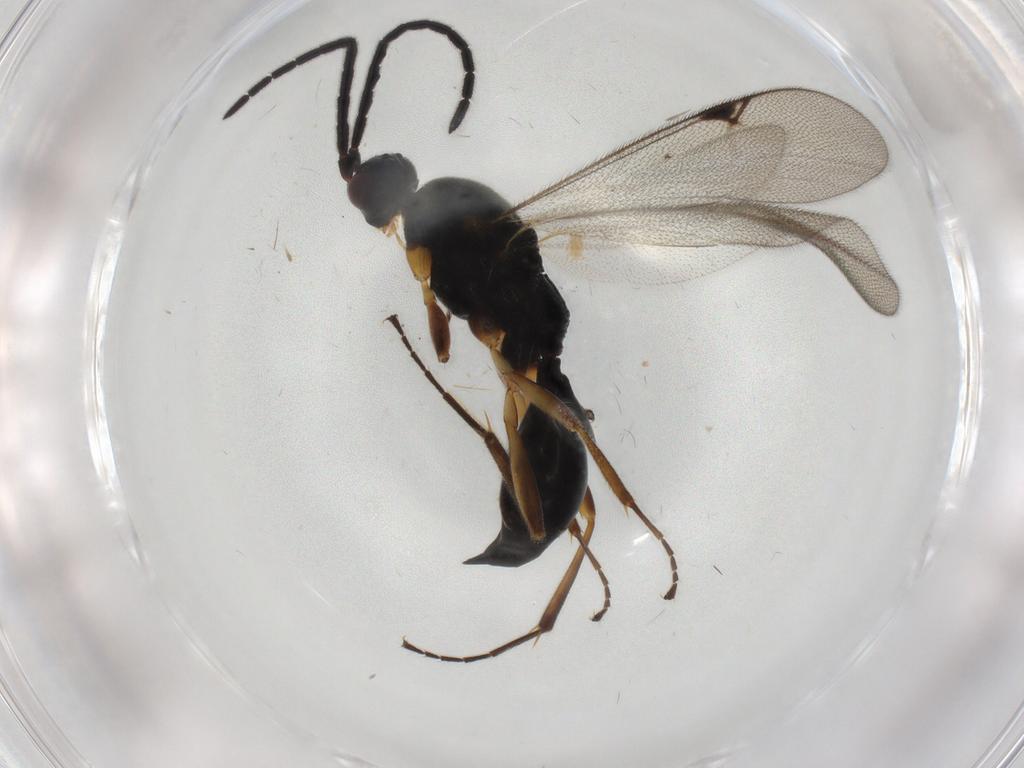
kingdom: Animalia
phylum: Arthropoda
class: Insecta
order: Hymenoptera
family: Proctotrupidae
